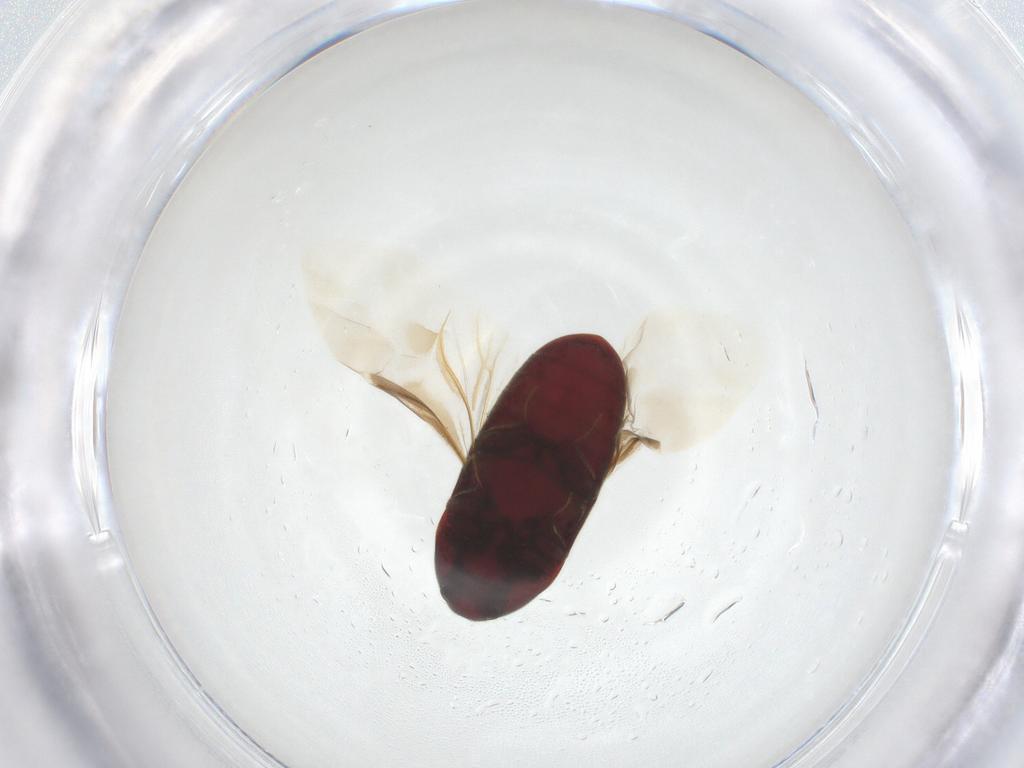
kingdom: Animalia
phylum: Arthropoda
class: Insecta
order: Coleoptera
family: Throscidae
